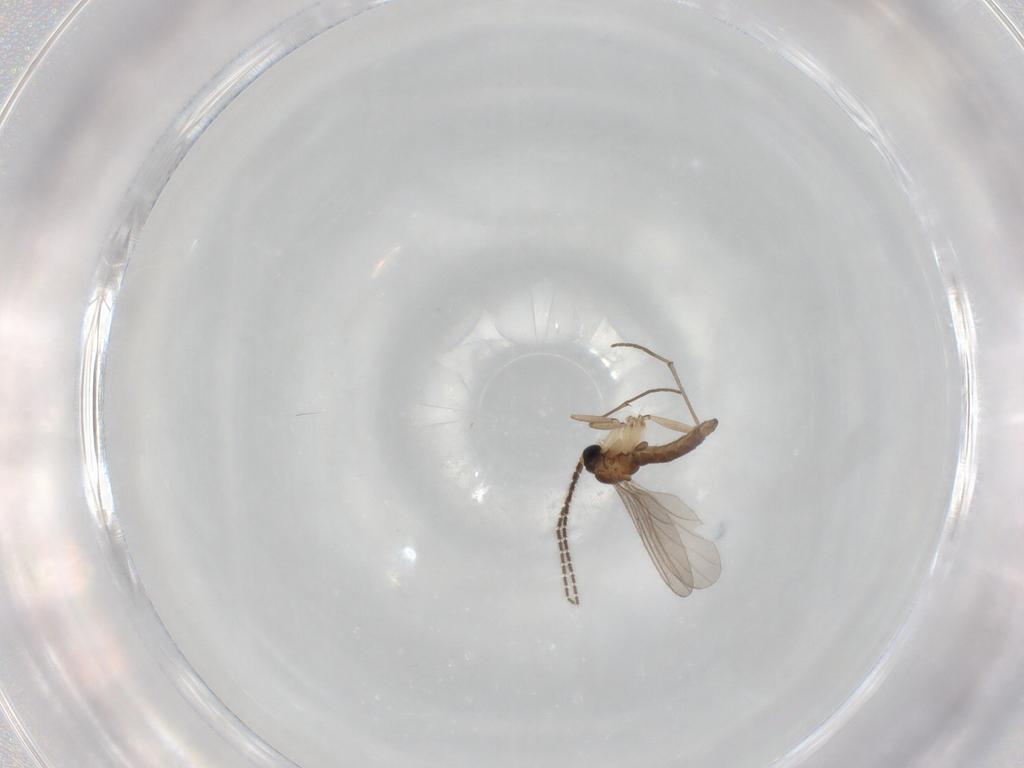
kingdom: Animalia
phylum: Arthropoda
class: Insecta
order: Diptera
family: Sciaridae
